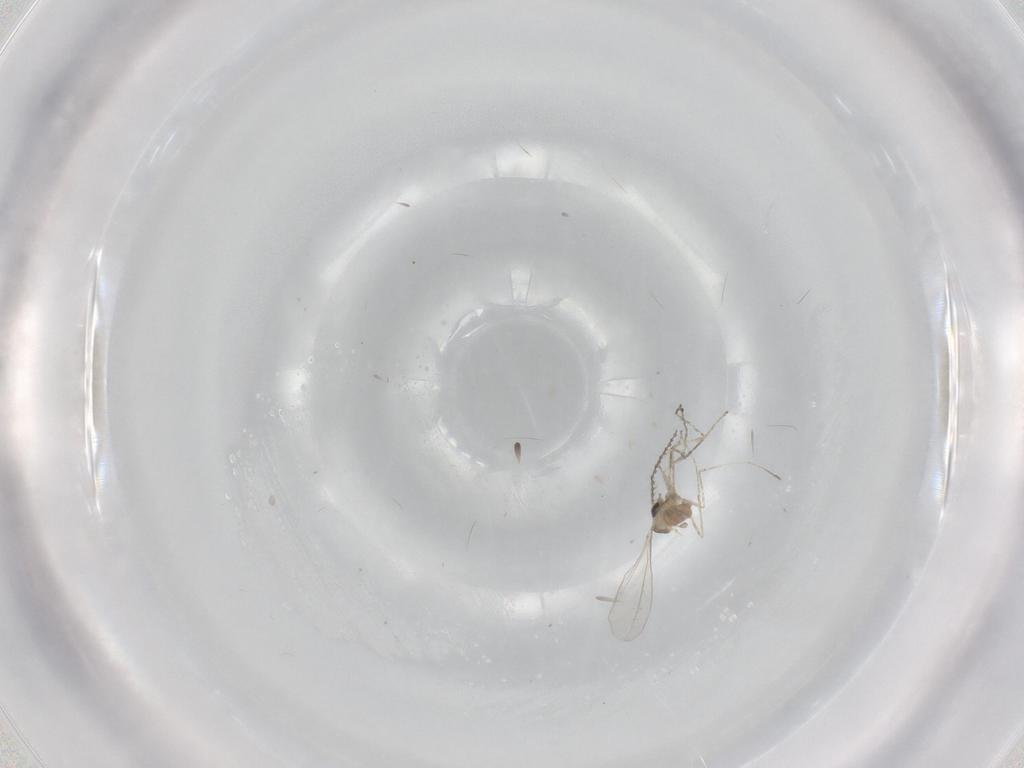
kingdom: Animalia
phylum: Arthropoda
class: Insecta
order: Diptera
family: Cecidomyiidae
